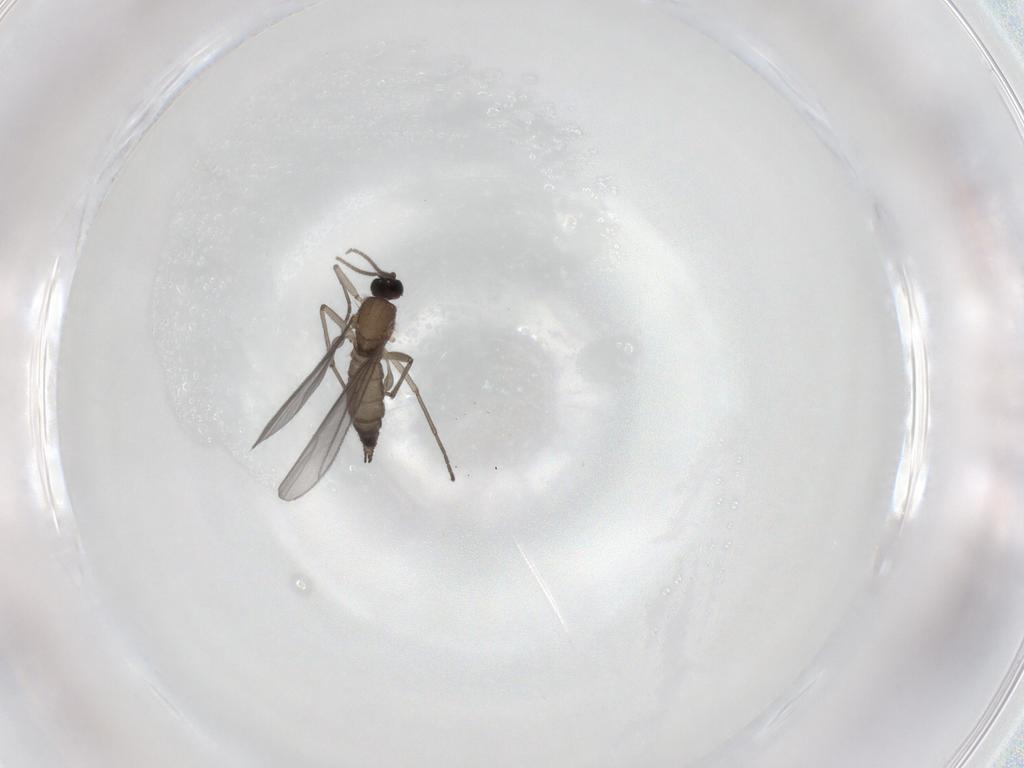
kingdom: Animalia
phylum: Arthropoda
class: Insecta
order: Diptera
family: Sciaridae
